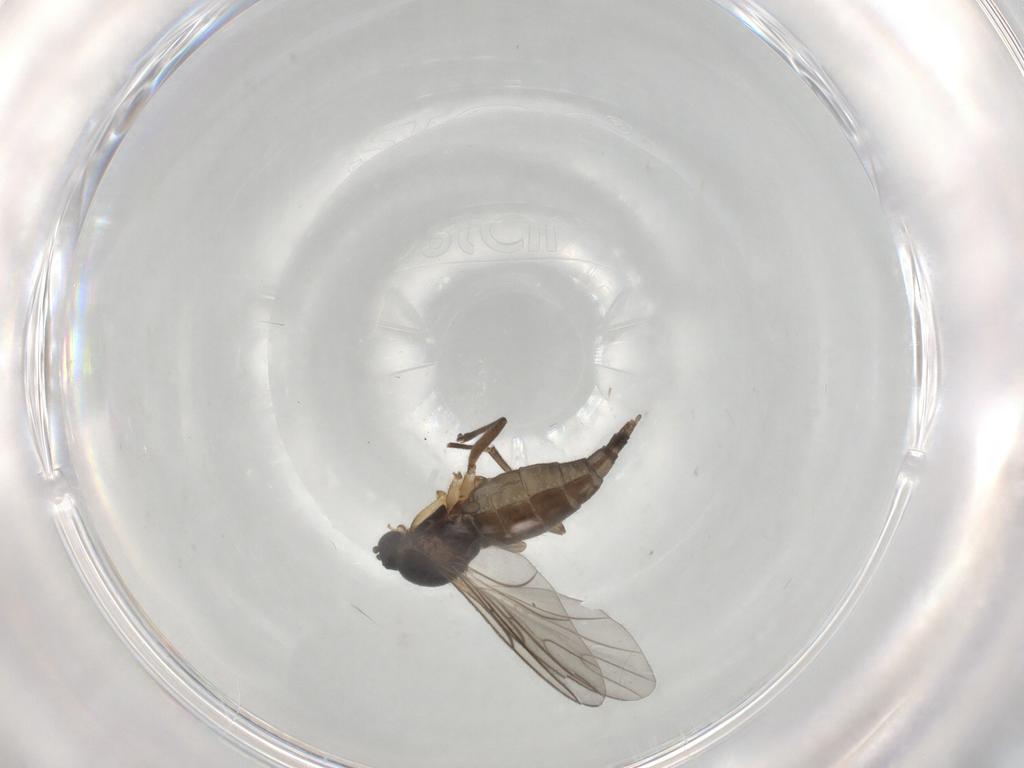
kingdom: Animalia
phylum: Arthropoda
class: Insecta
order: Diptera
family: Sciaridae
